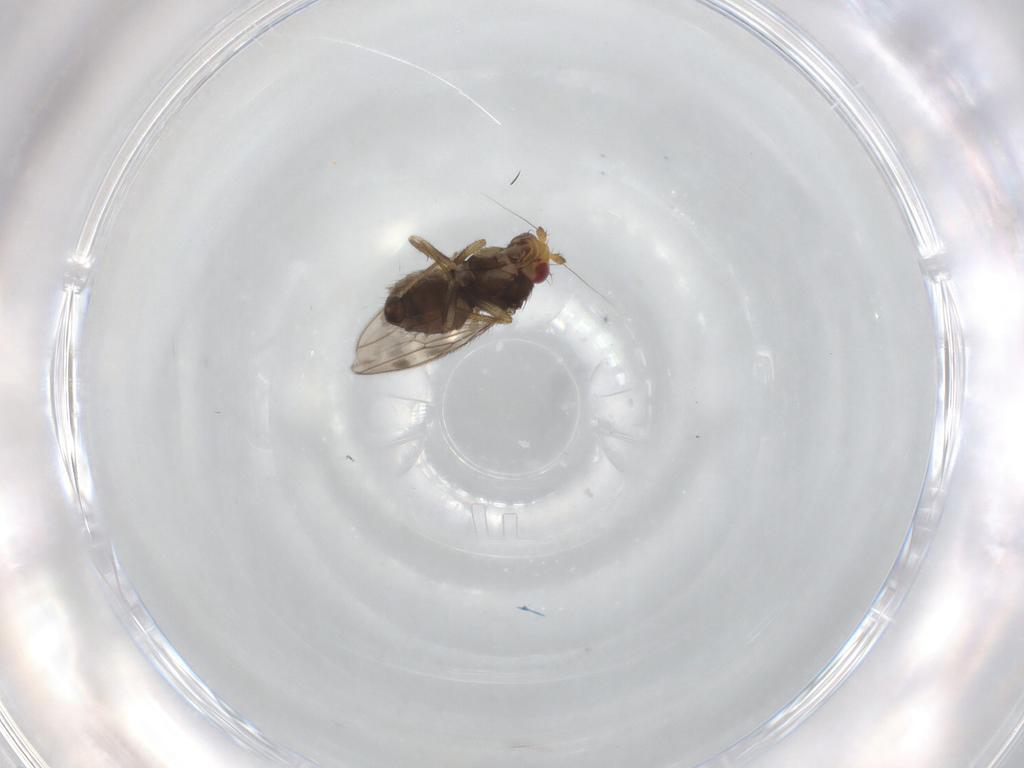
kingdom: Animalia
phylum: Arthropoda
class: Insecta
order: Diptera
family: Sphaeroceridae
